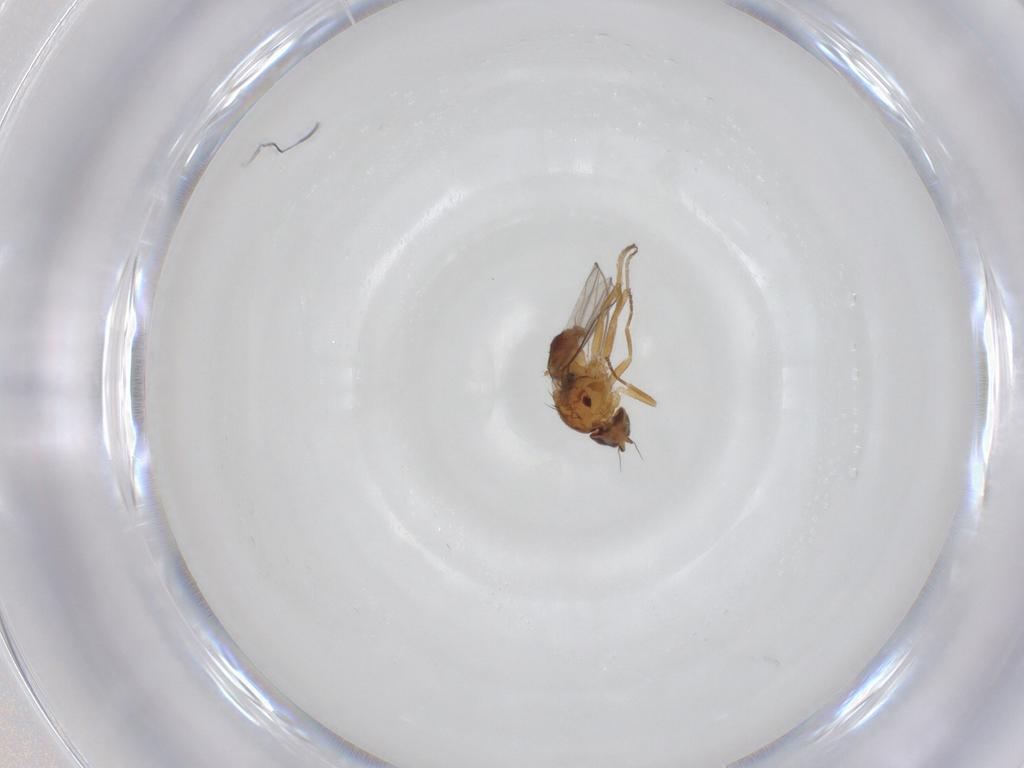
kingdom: Animalia
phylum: Arthropoda
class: Insecta
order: Diptera
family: Chloropidae
